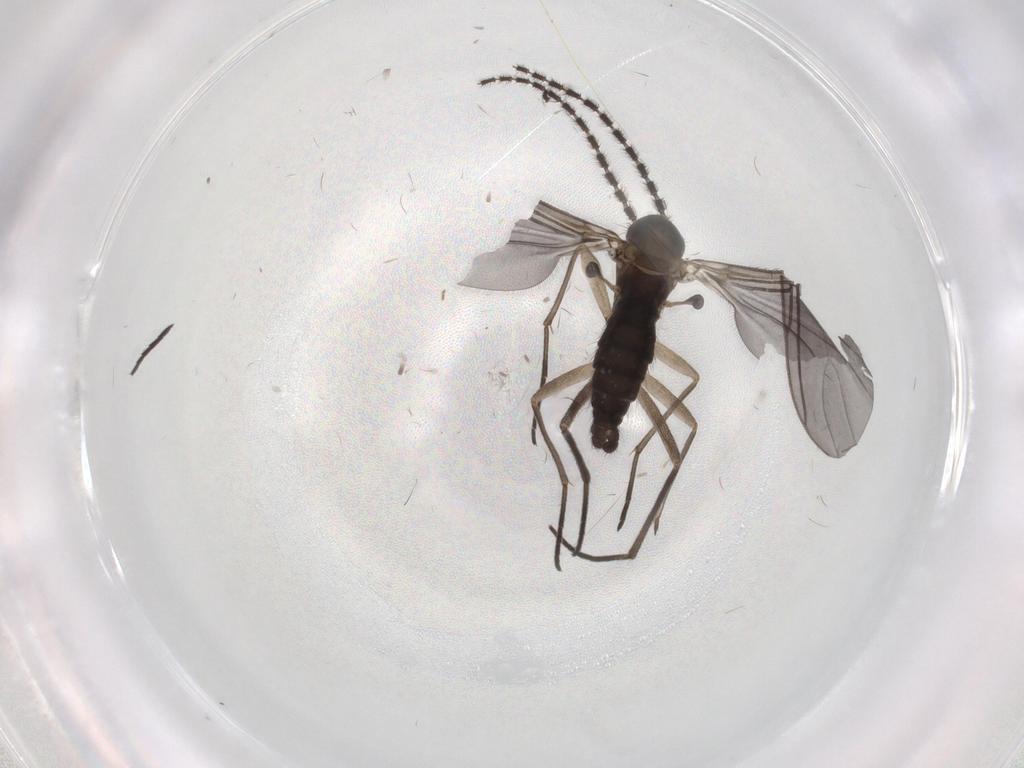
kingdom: Animalia
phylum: Arthropoda
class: Insecta
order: Diptera
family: Sciaridae
